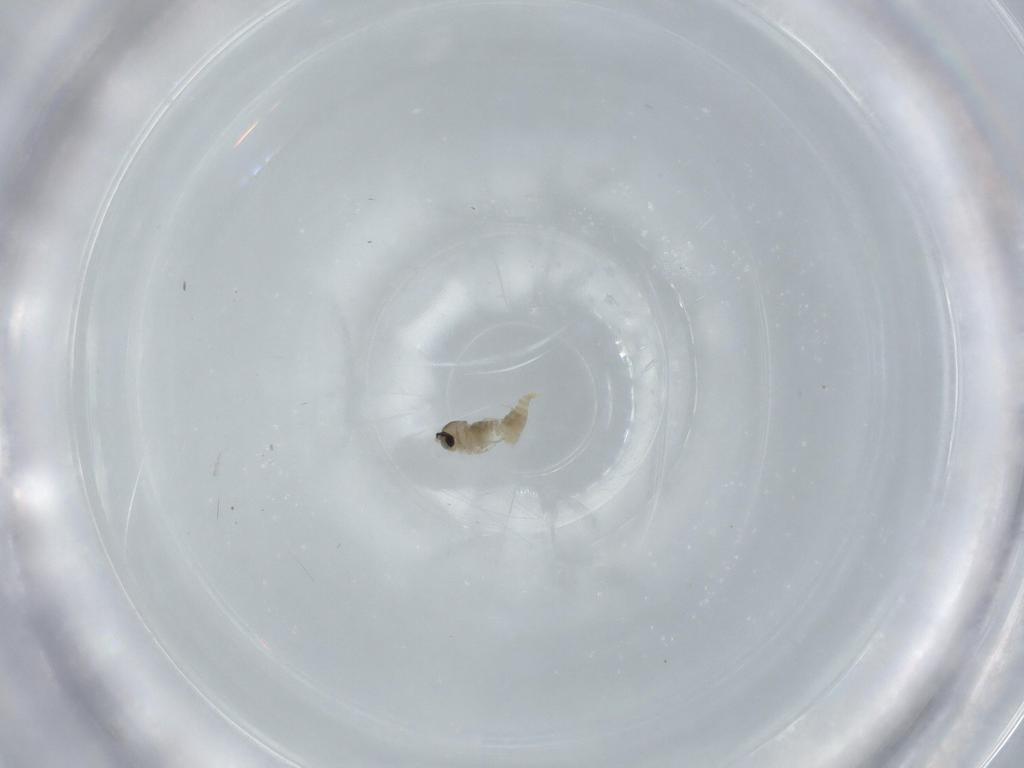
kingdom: Animalia
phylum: Arthropoda
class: Insecta
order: Diptera
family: Cecidomyiidae
